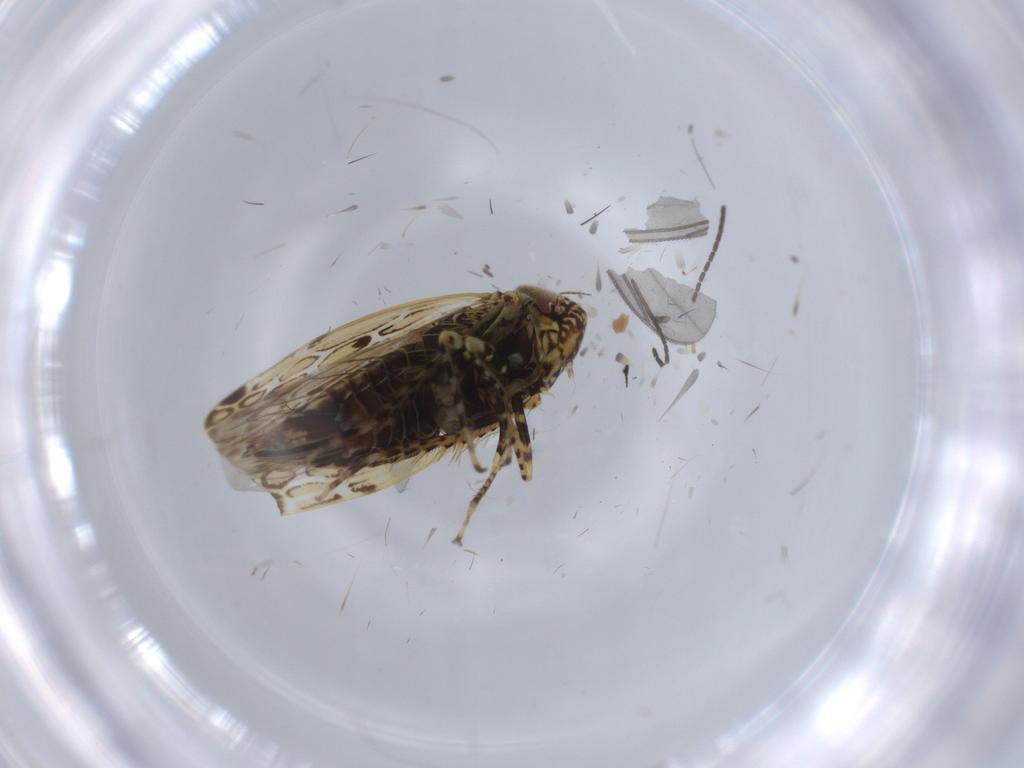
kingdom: Animalia
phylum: Arthropoda
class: Insecta
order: Hemiptera
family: Cicadellidae
